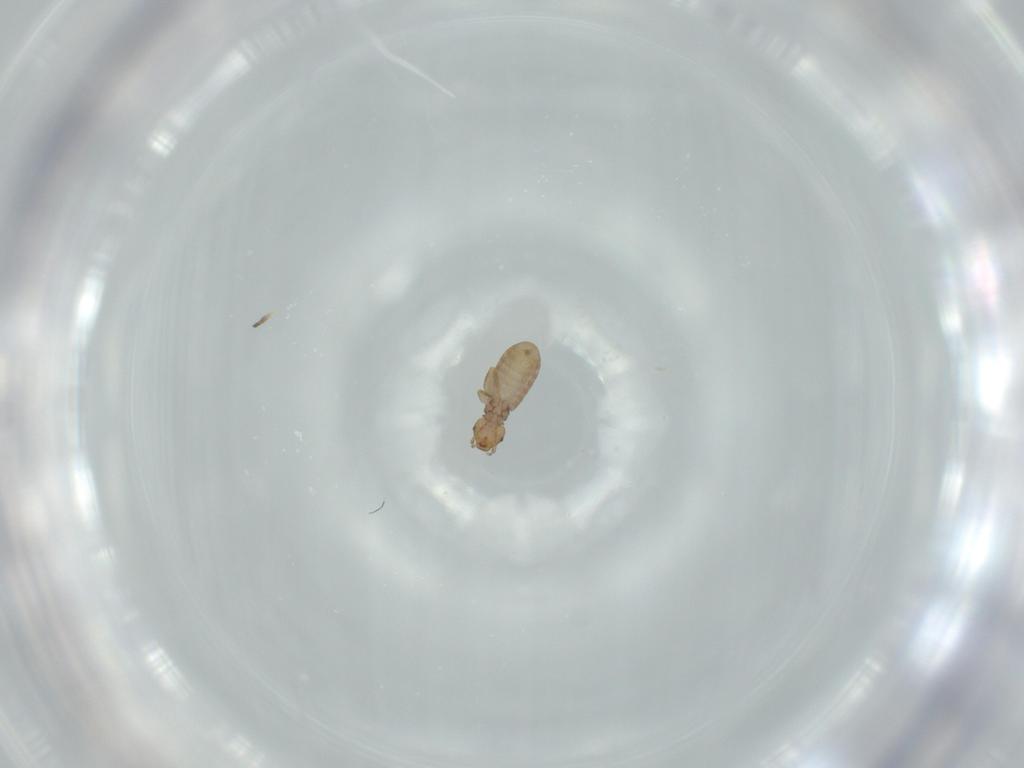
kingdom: Animalia
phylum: Arthropoda
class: Insecta
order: Psocodea
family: Liposcelididae
